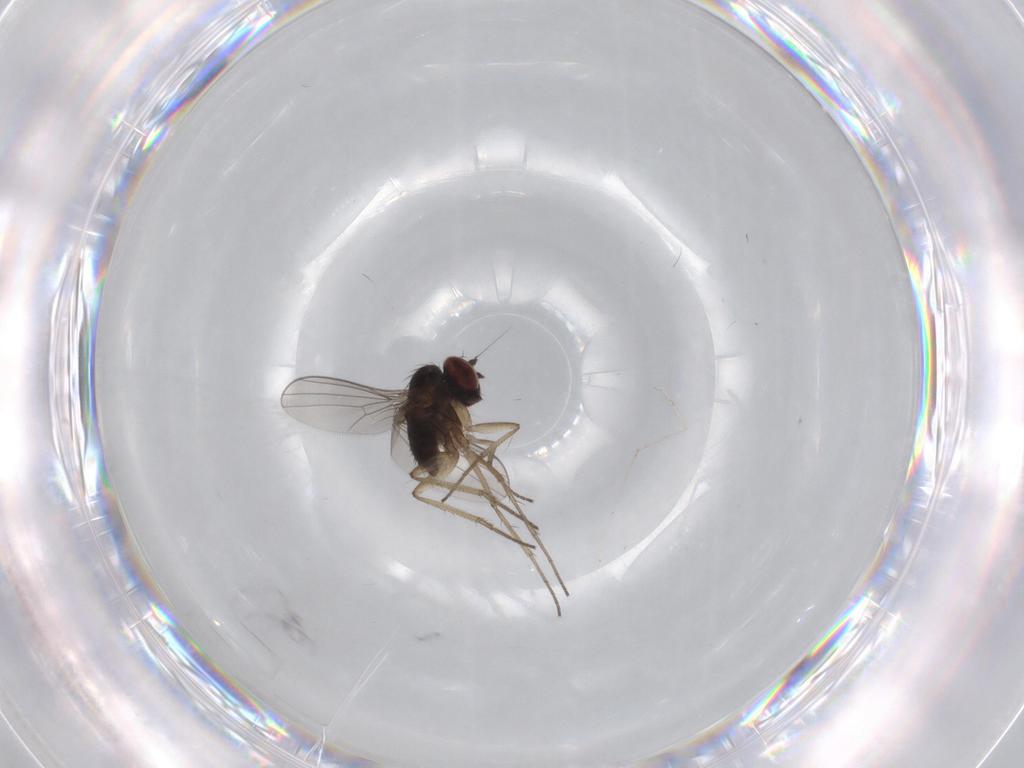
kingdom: Animalia
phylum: Arthropoda
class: Insecta
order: Diptera
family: Dolichopodidae
